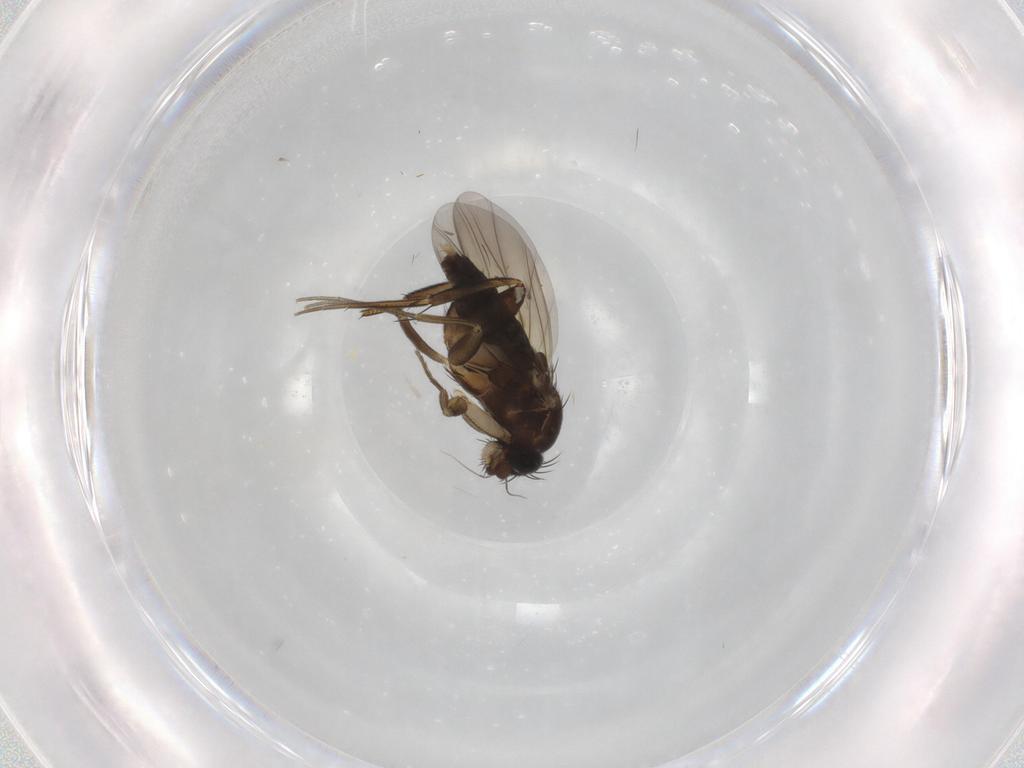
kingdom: Animalia
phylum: Arthropoda
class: Insecta
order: Diptera
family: Phoridae
